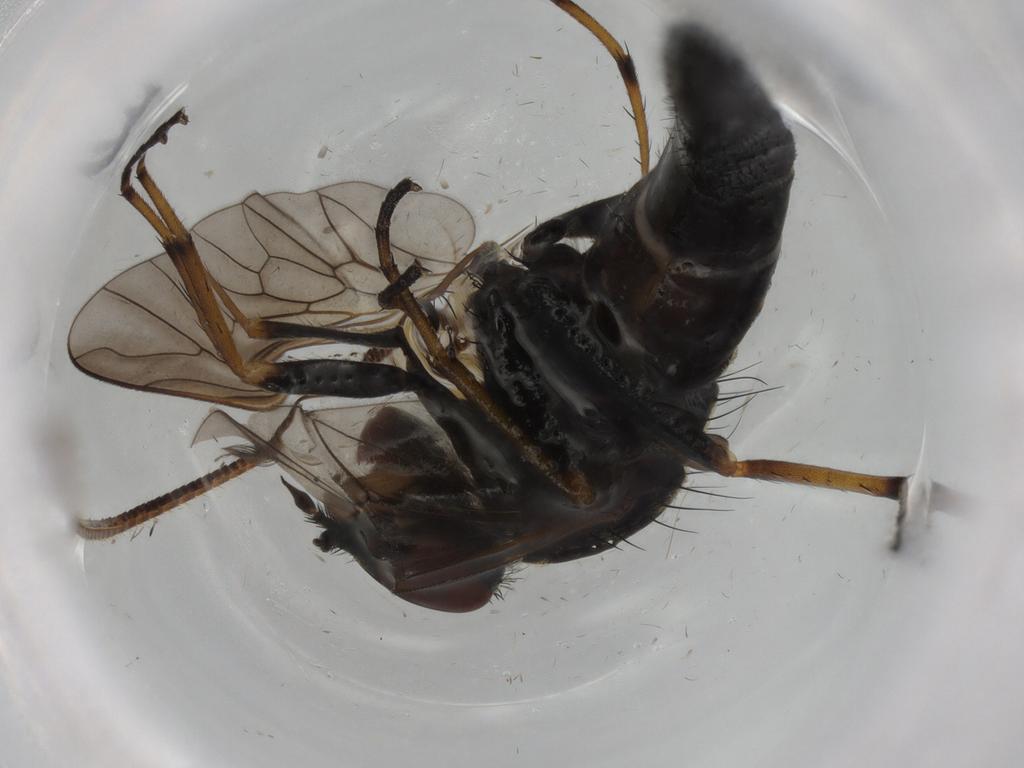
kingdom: Animalia
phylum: Arthropoda
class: Insecta
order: Diptera
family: Therevidae
